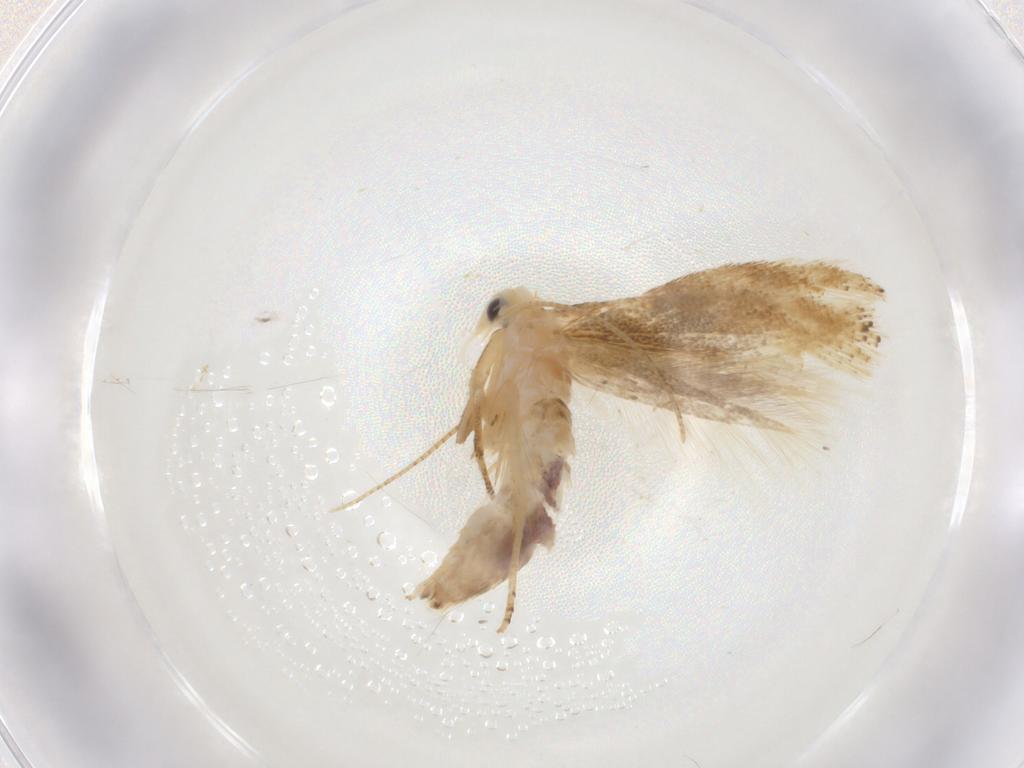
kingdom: Animalia
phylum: Arthropoda
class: Insecta
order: Lepidoptera
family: Bucculatricidae
